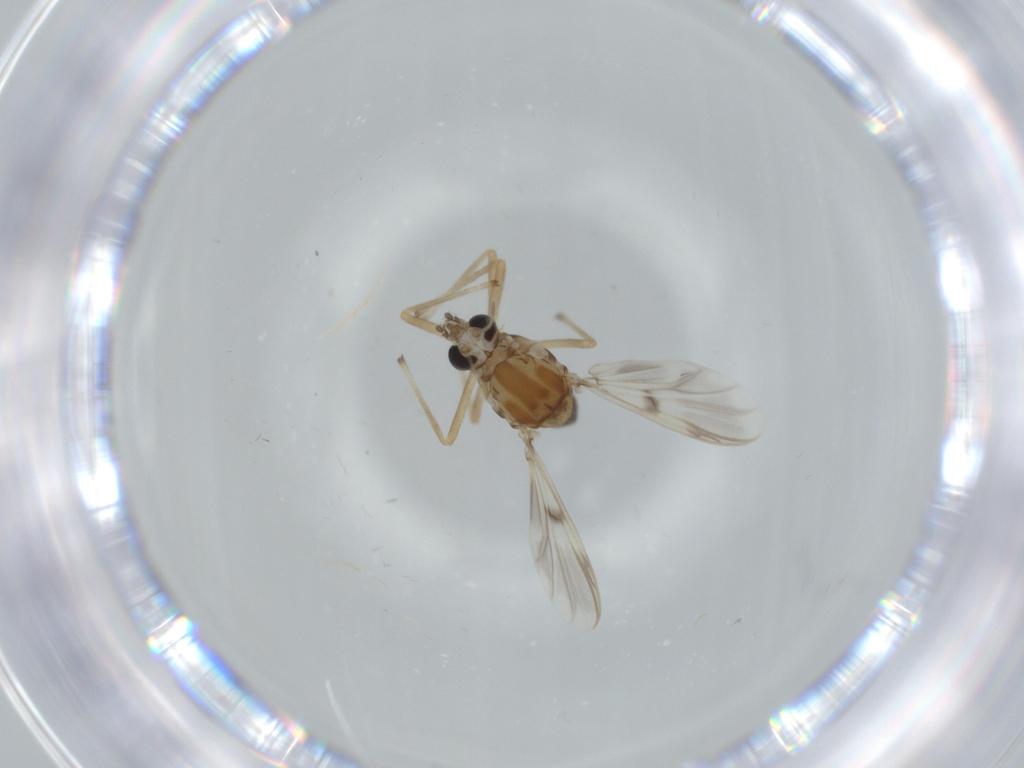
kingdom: Animalia
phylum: Arthropoda
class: Insecta
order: Diptera
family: Chironomidae
